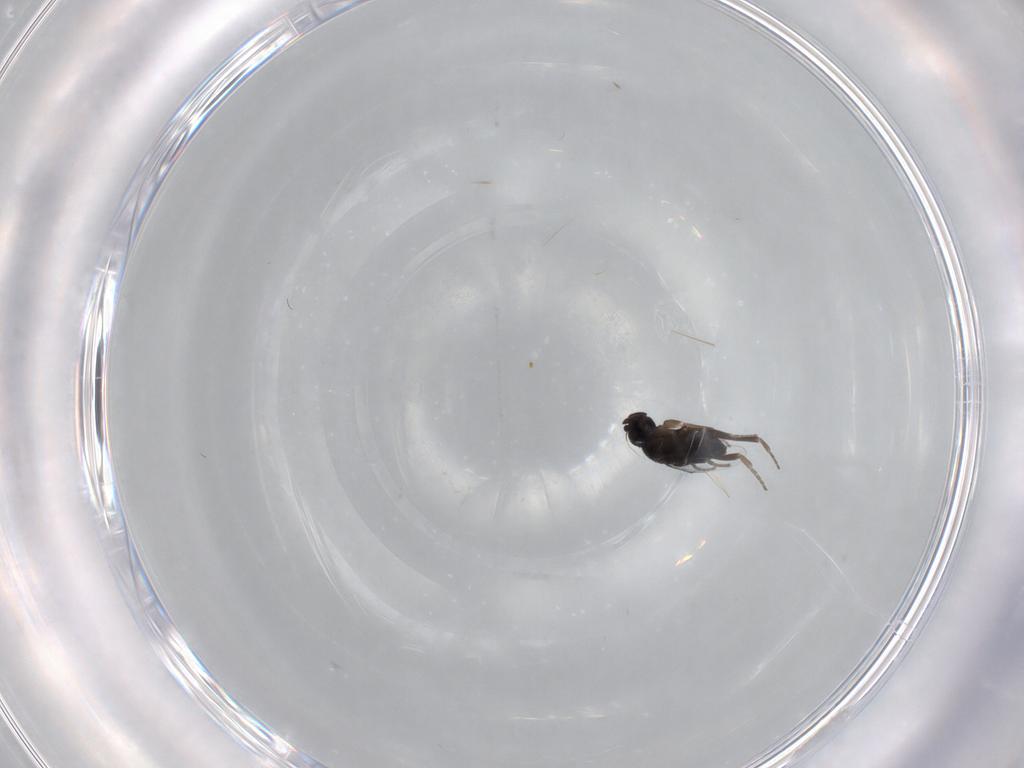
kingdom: Animalia
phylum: Arthropoda
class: Insecta
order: Diptera
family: Phoridae
